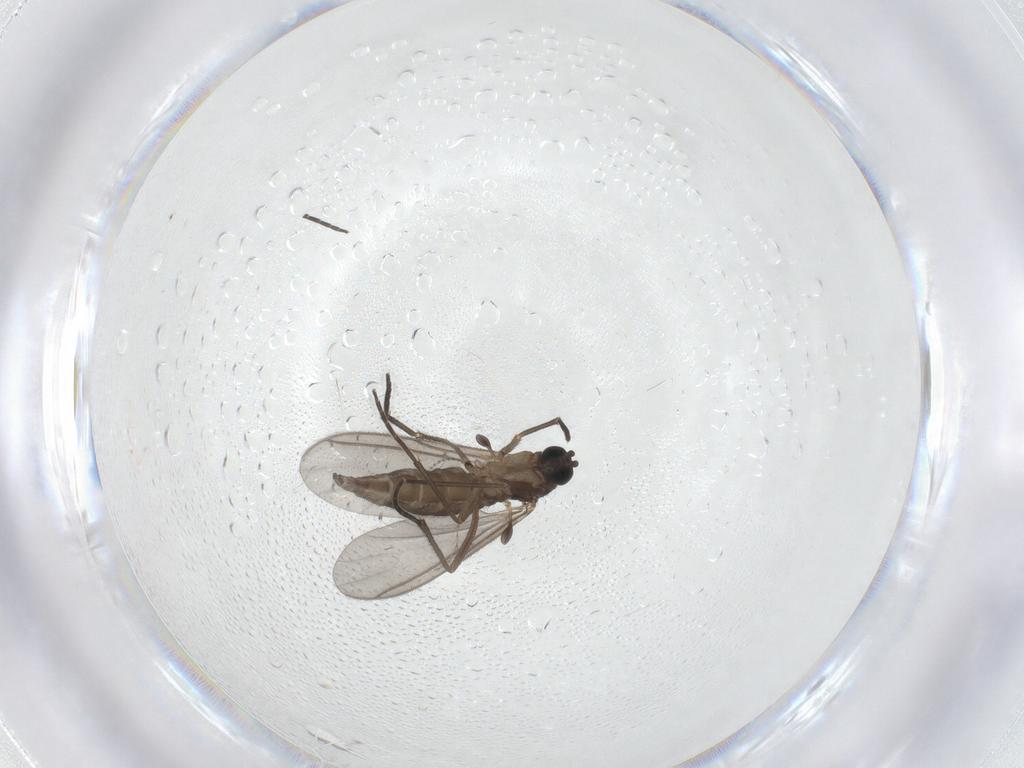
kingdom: Animalia
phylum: Arthropoda
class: Insecta
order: Diptera
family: Sciaridae
